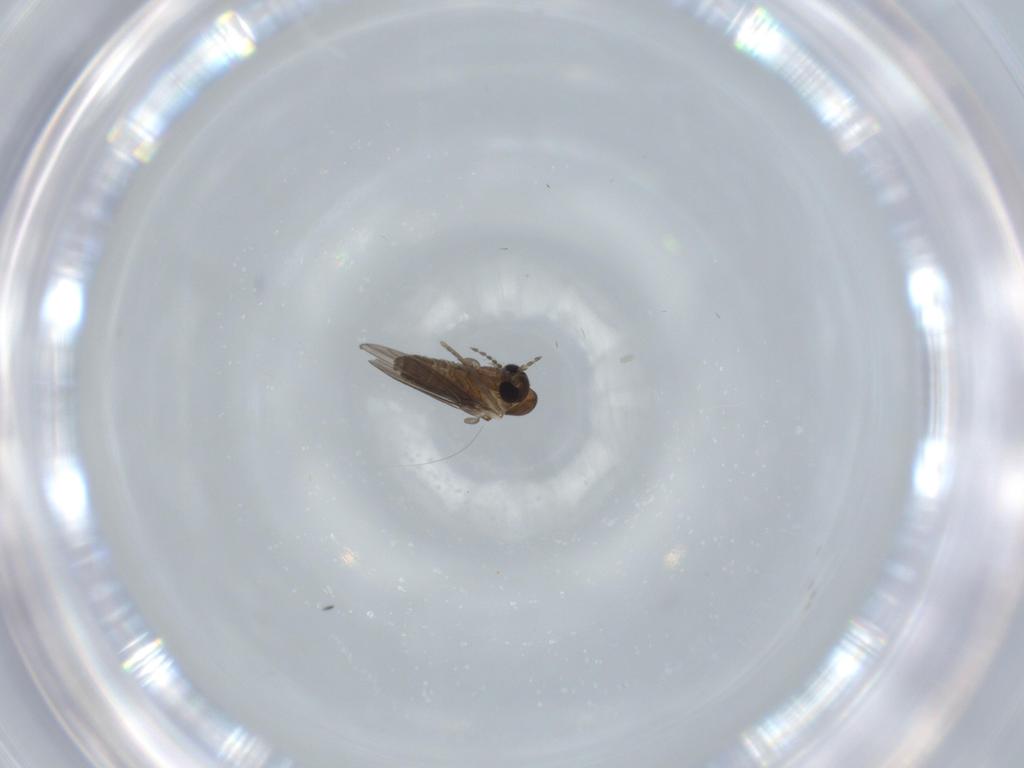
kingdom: Animalia
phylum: Arthropoda
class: Insecta
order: Diptera
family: Psychodidae
